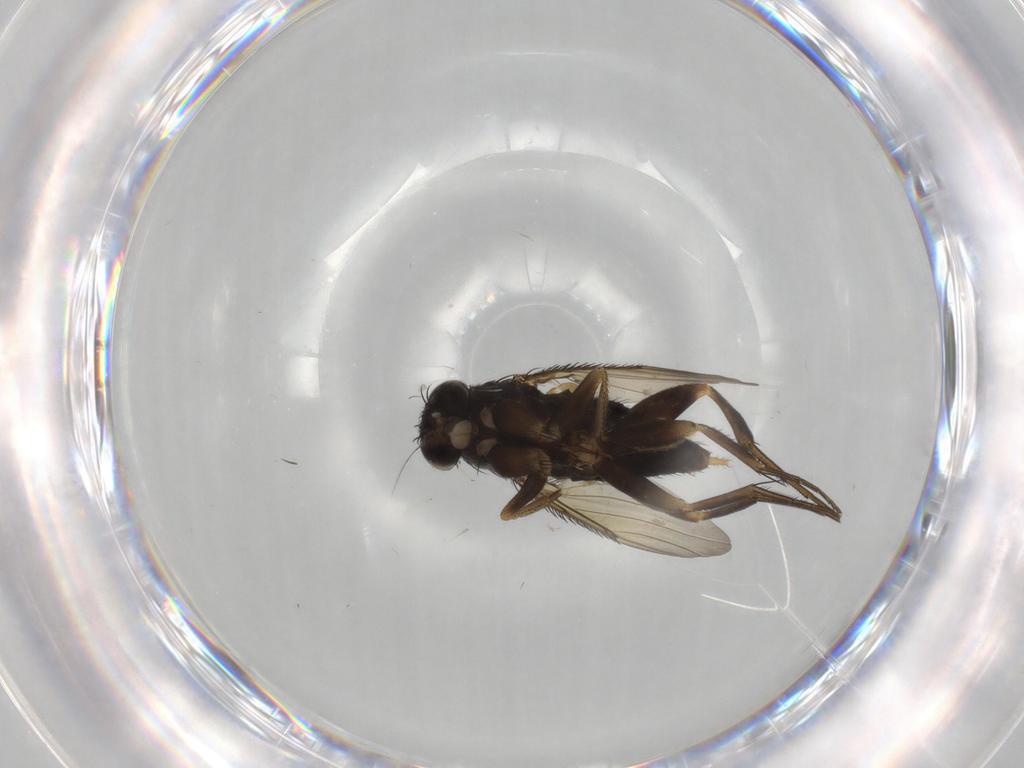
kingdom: Animalia
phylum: Arthropoda
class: Insecta
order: Diptera
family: Phoridae
